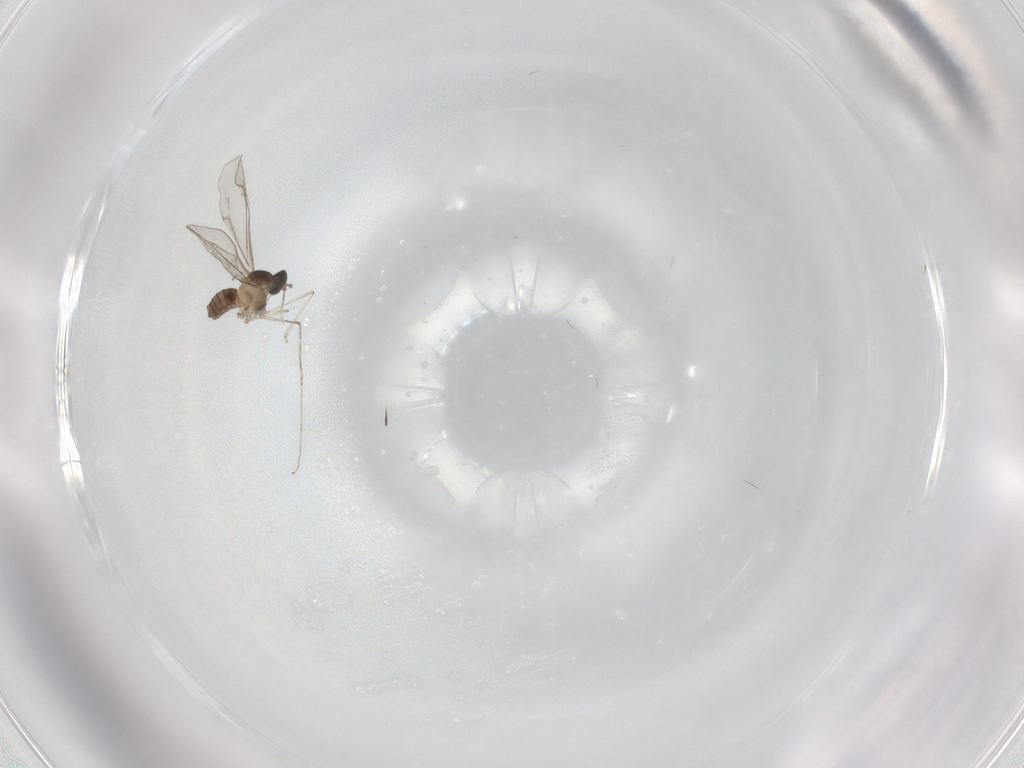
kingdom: Animalia
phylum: Arthropoda
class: Insecta
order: Diptera
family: Cecidomyiidae
